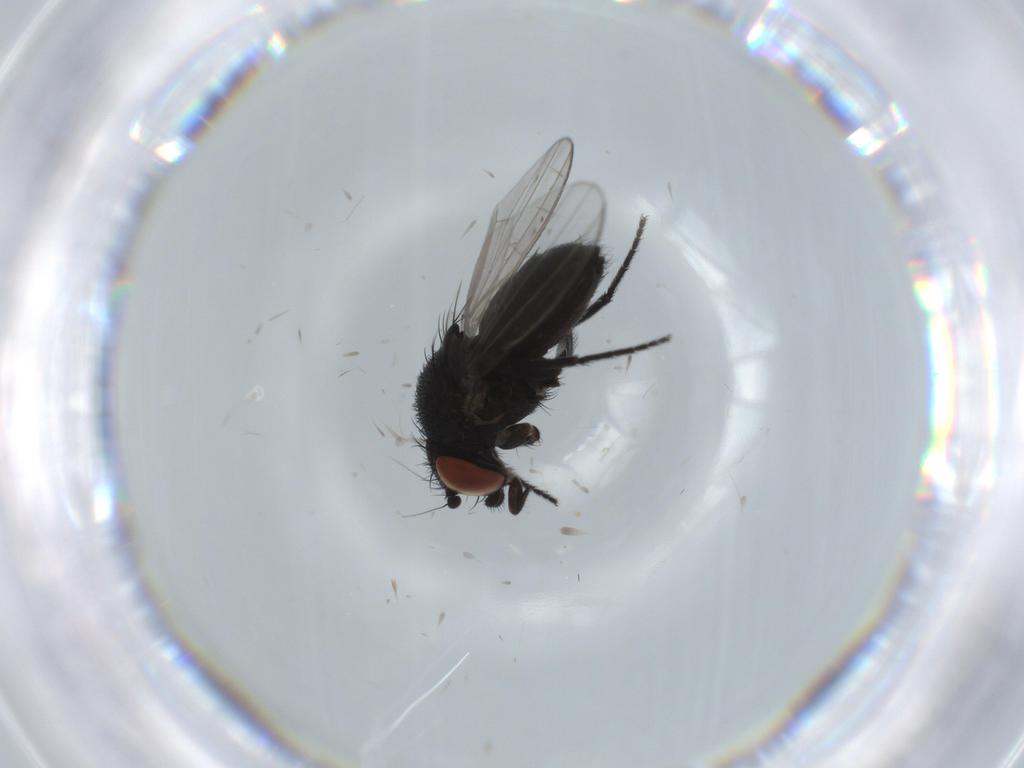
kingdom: Animalia
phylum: Arthropoda
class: Insecta
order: Diptera
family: Milichiidae
